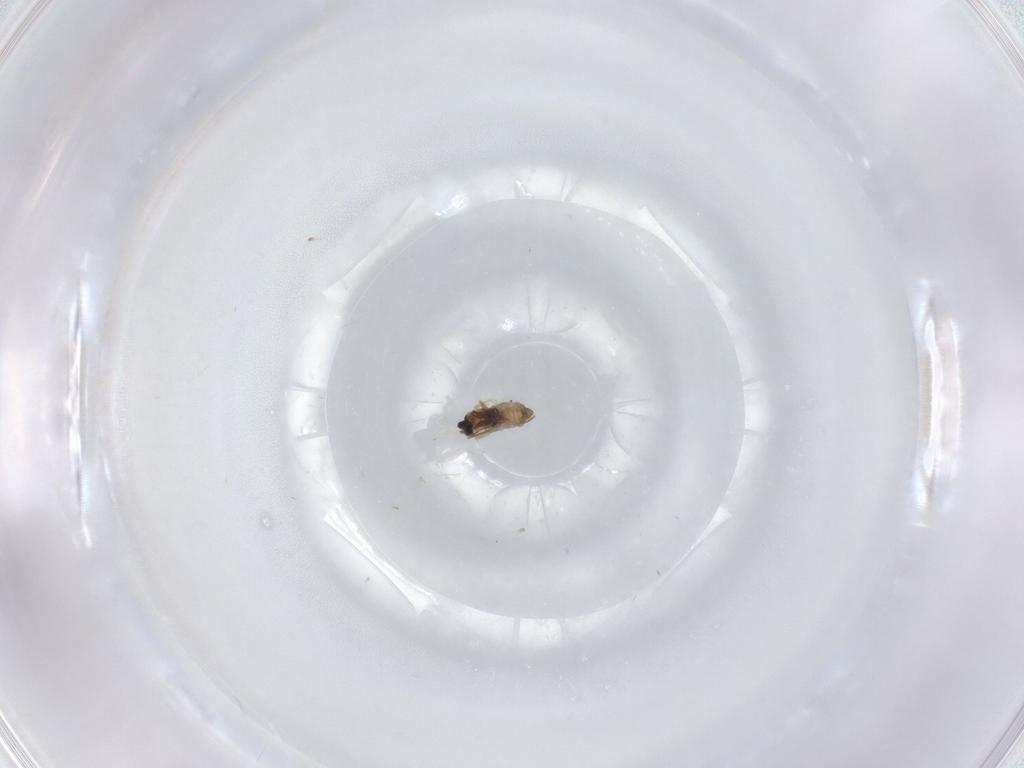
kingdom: Animalia
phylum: Arthropoda
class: Insecta
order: Diptera
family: Cecidomyiidae
